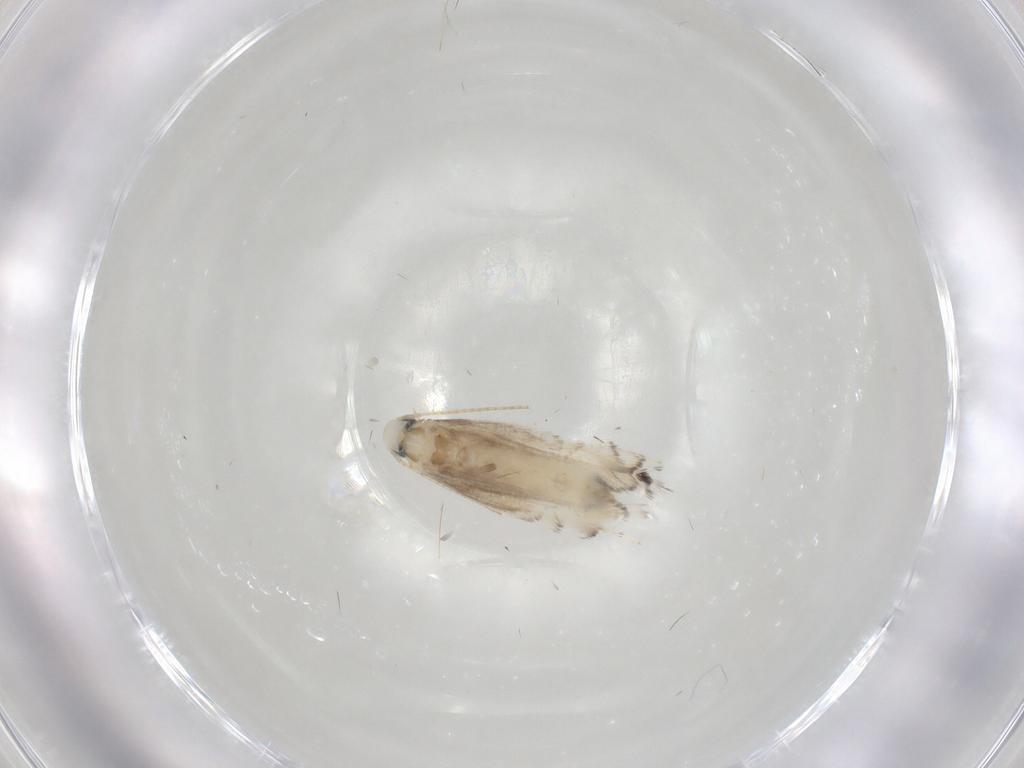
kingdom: Animalia
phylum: Arthropoda
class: Insecta
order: Lepidoptera
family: Gracillariidae
